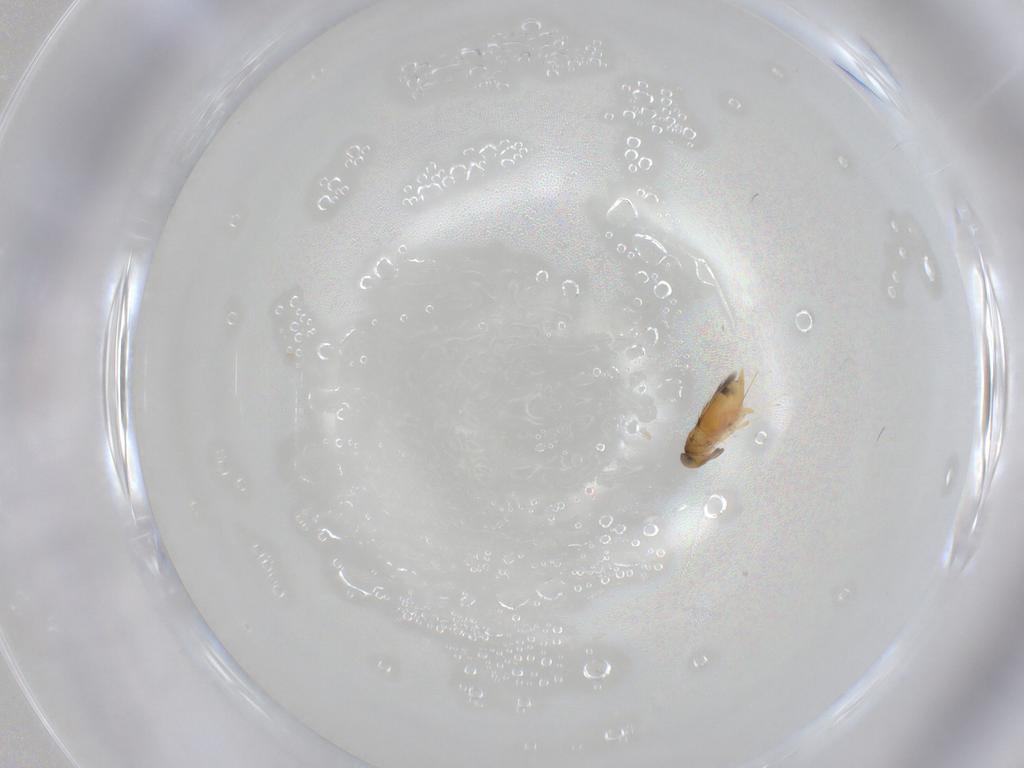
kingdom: Animalia
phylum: Arthropoda
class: Insecta
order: Hymenoptera
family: Signiphoridae
